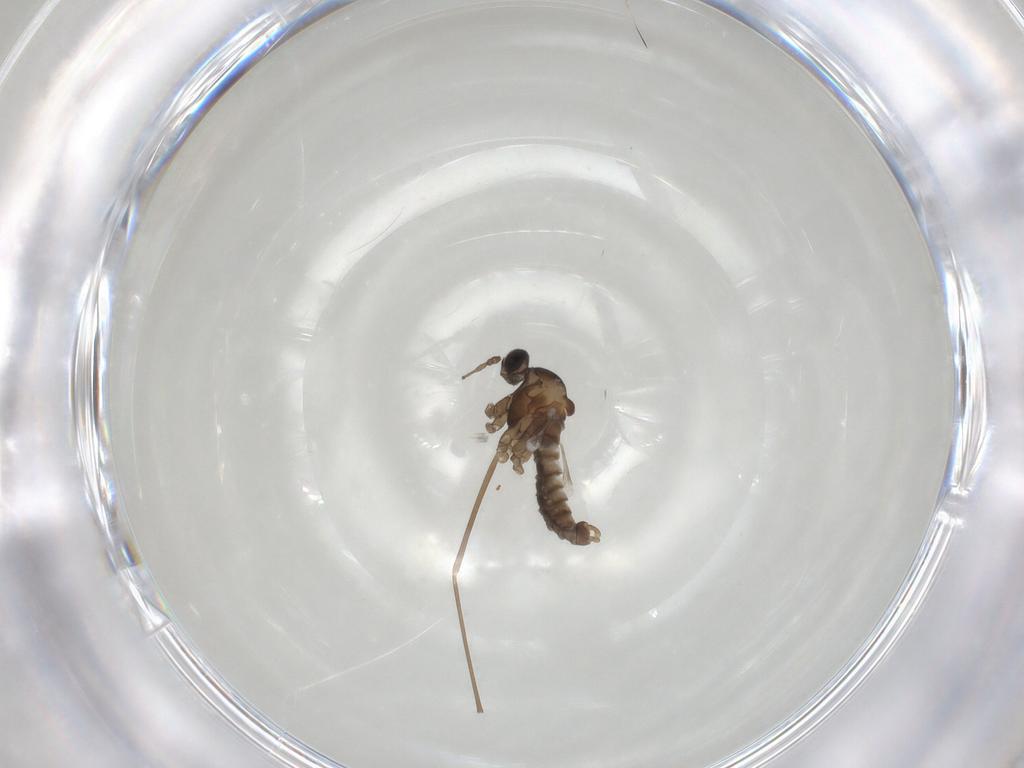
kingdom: Animalia
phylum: Arthropoda
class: Insecta
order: Diptera
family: Cecidomyiidae
